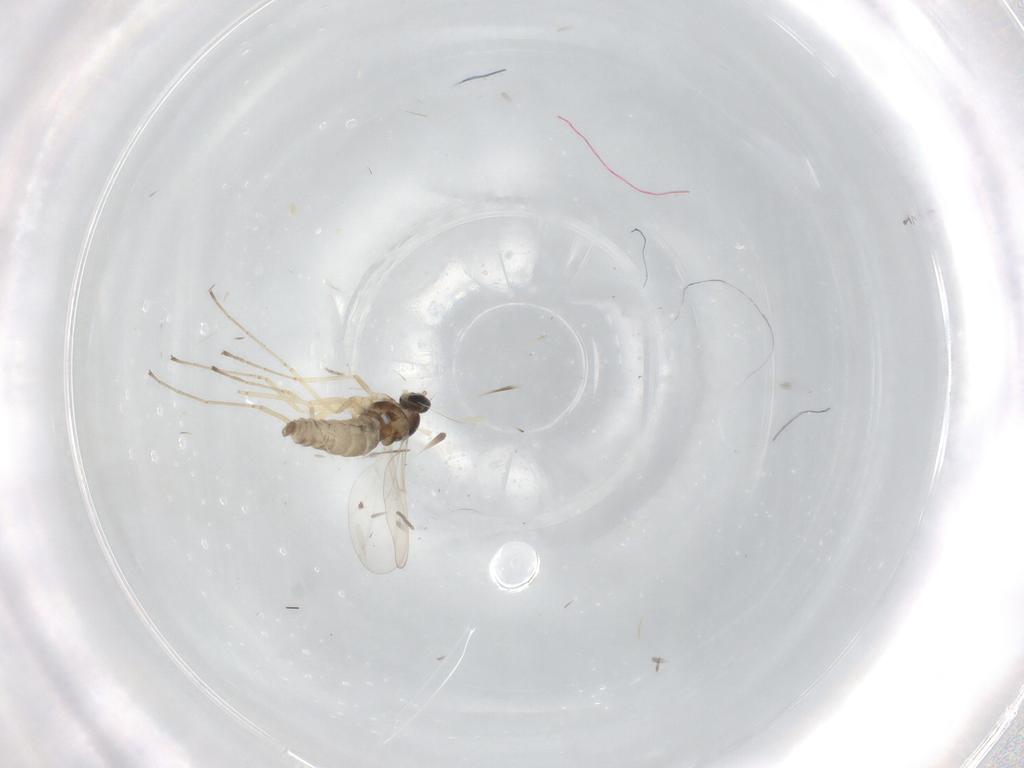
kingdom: Animalia
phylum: Arthropoda
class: Insecta
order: Diptera
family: Cecidomyiidae
